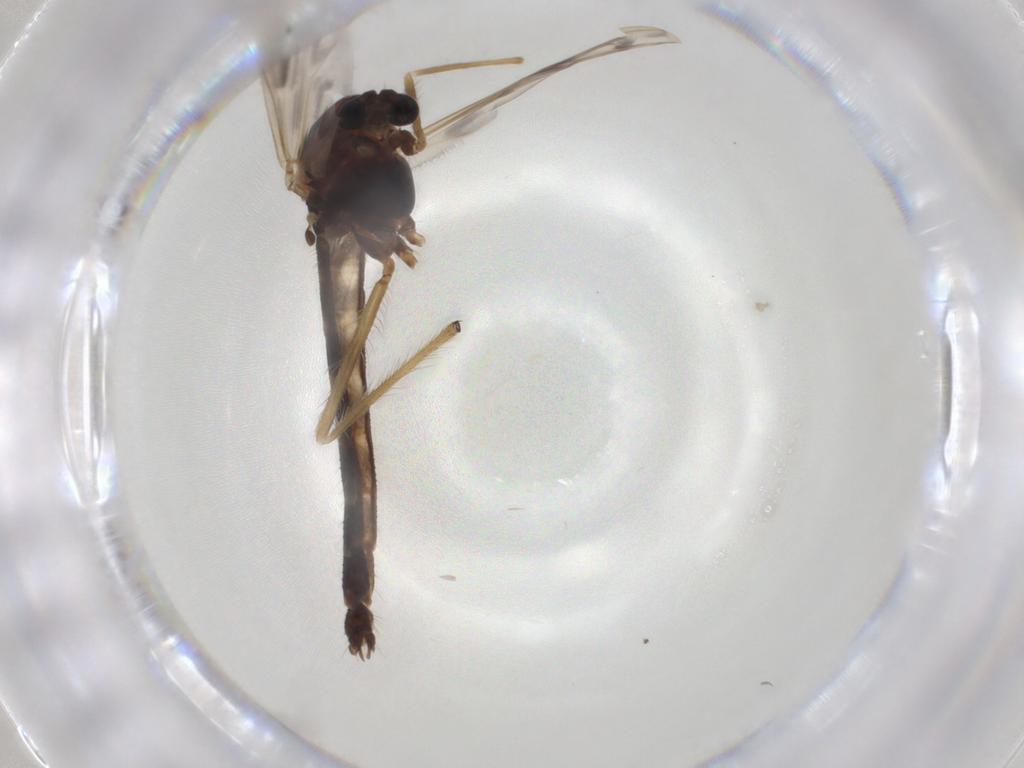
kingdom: Animalia
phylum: Arthropoda
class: Insecta
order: Diptera
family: Chironomidae
